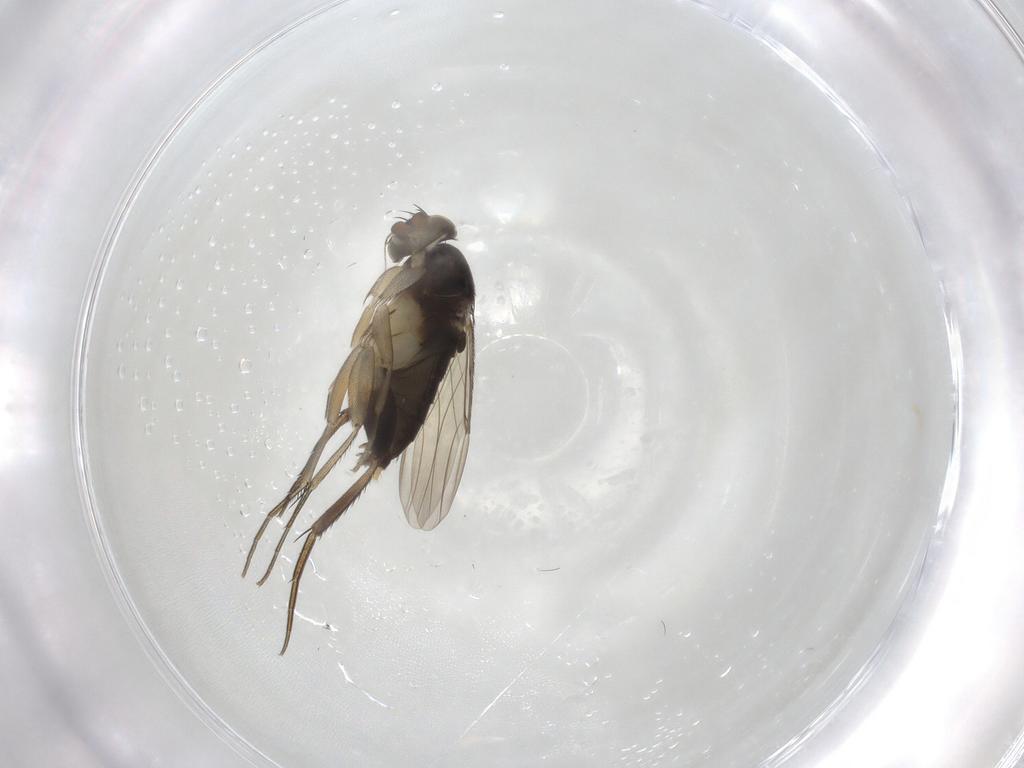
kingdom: Animalia
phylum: Arthropoda
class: Insecta
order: Diptera
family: Phoridae
